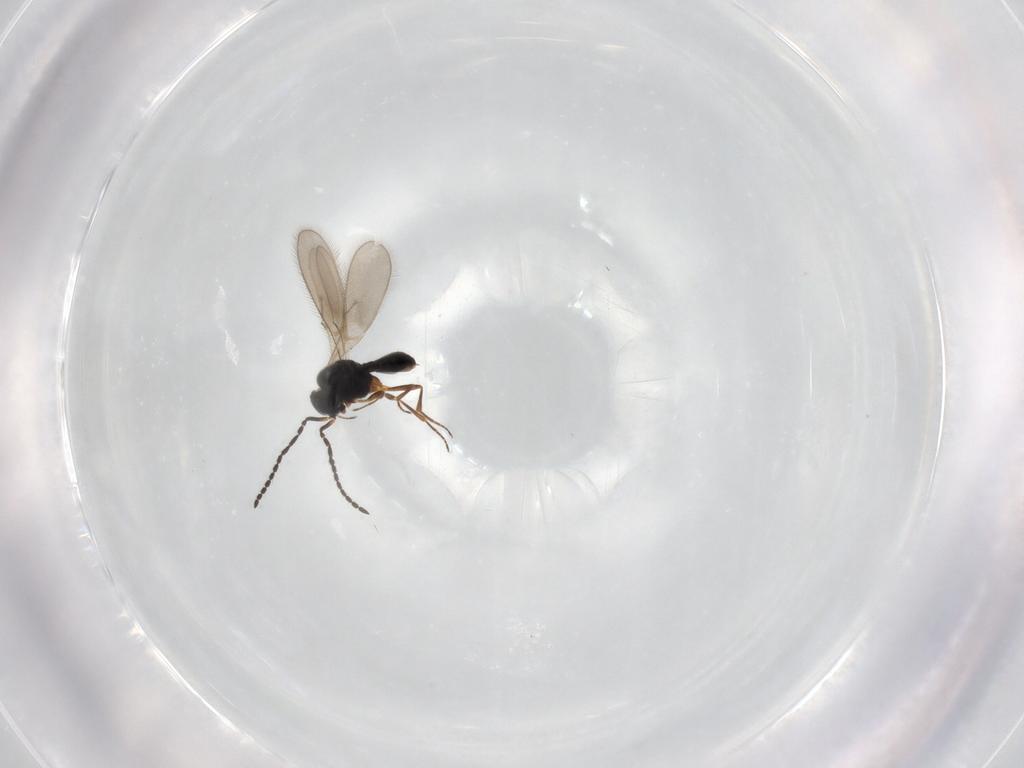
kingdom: Animalia
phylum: Arthropoda
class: Insecta
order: Hymenoptera
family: Scelionidae
